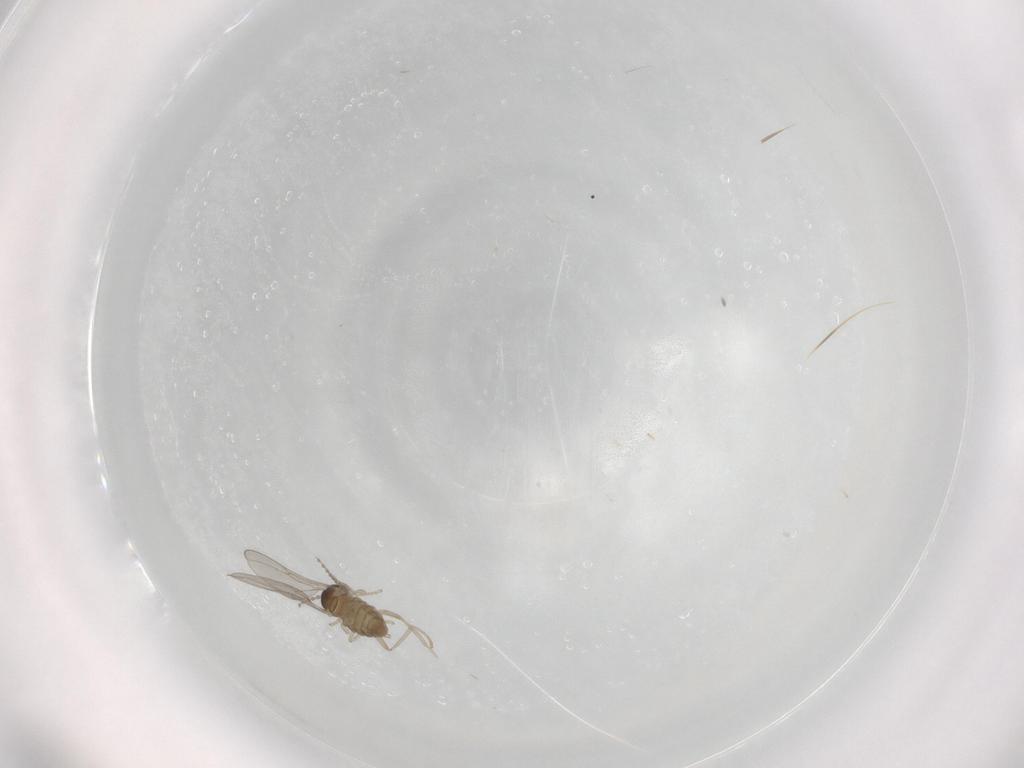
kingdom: Animalia
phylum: Arthropoda
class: Insecta
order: Diptera
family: Cecidomyiidae
